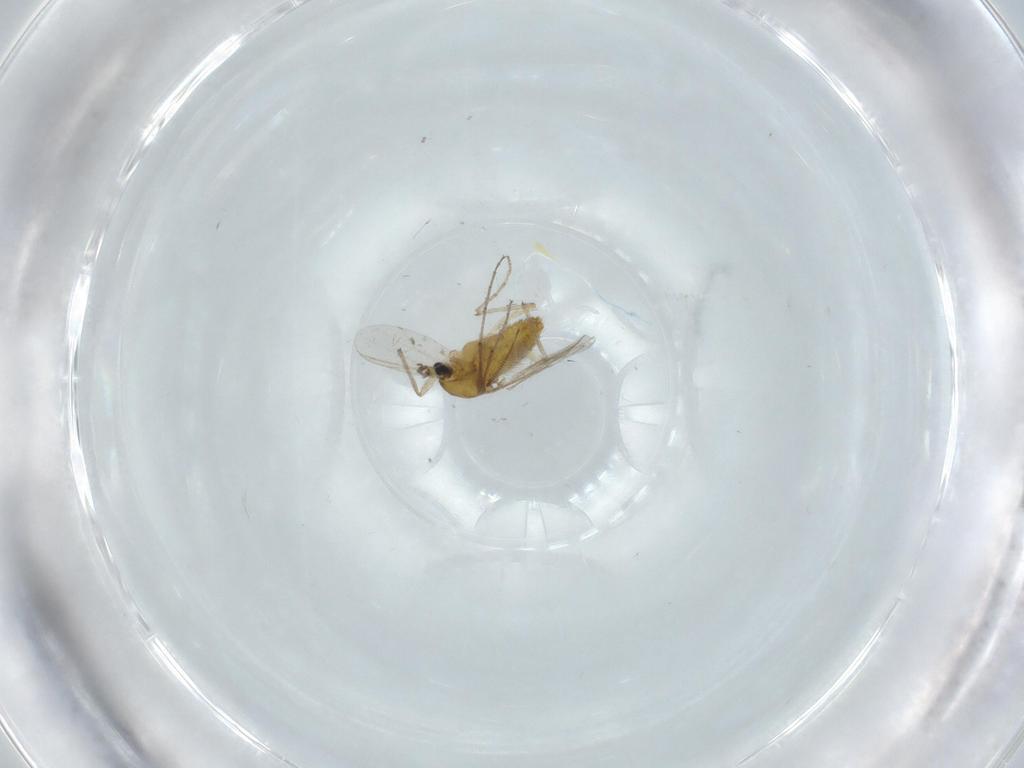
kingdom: Animalia
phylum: Arthropoda
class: Insecta
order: Diptera
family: Chironomidae
